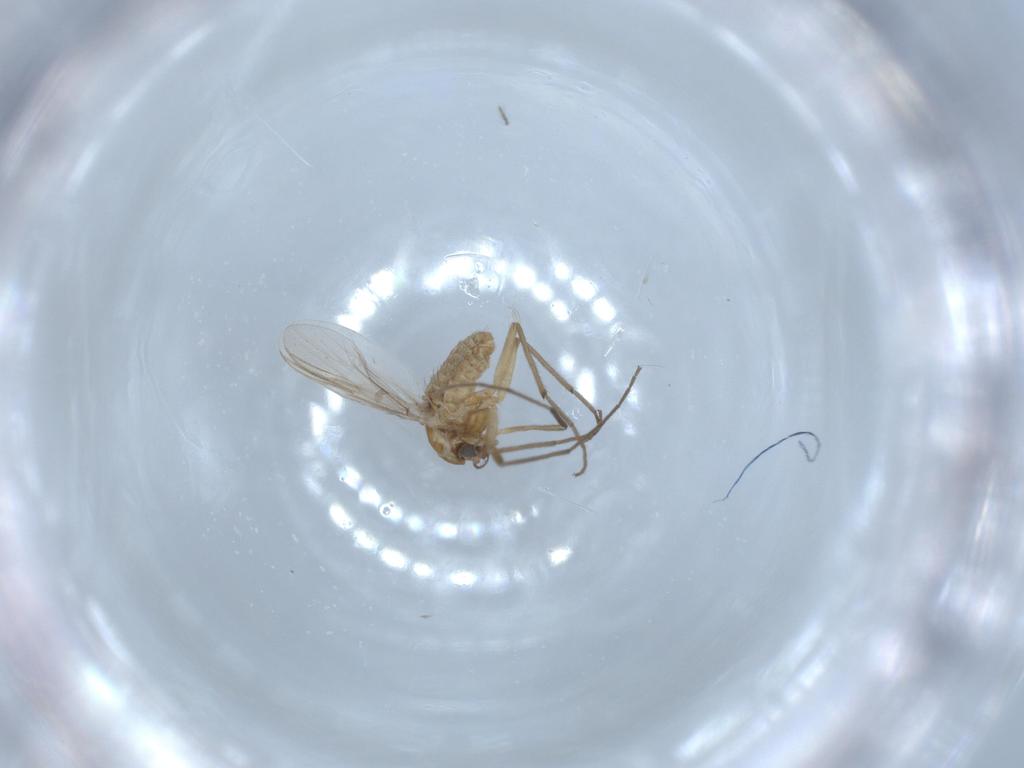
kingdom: Animalia
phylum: Arthropoda
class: Insecta
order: Diptera
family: Chironomidae
